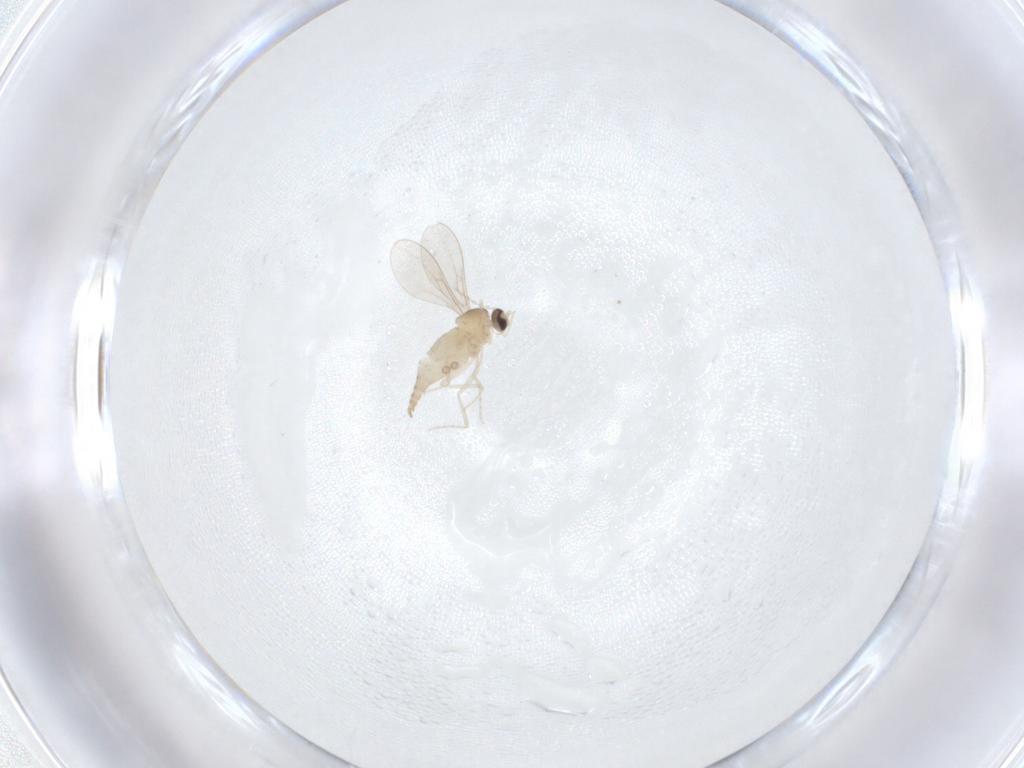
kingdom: Animalia
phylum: Arthropoda
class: Insecta
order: Diptera
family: Cecidomyiidae
